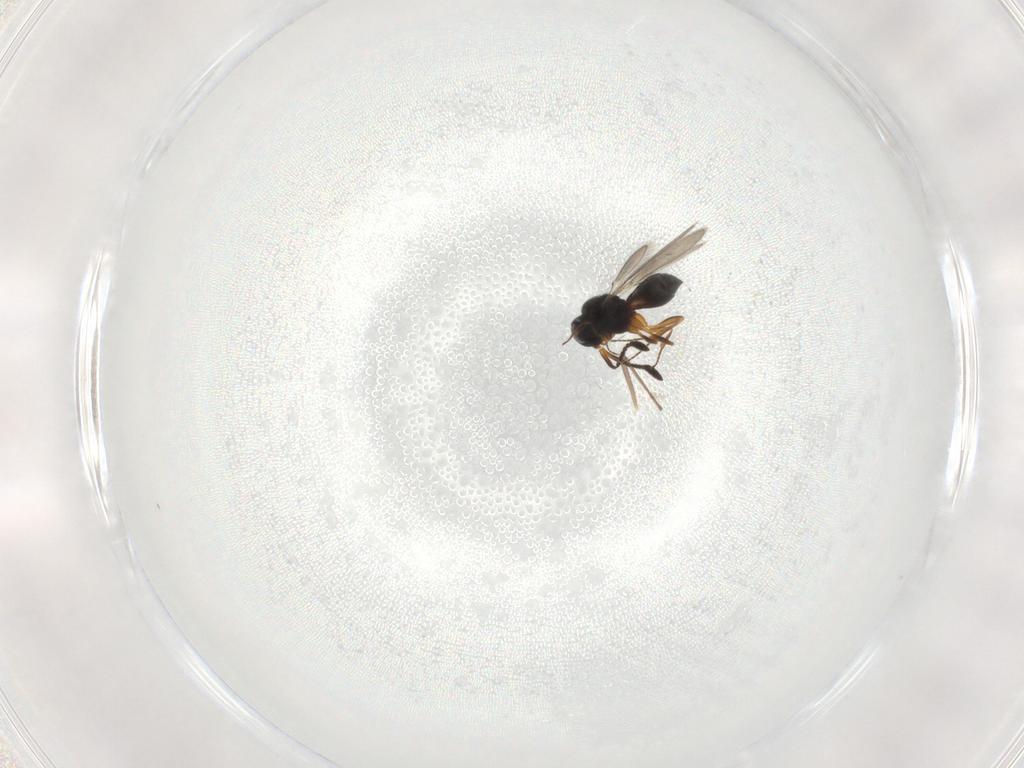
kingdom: Animalia
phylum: Arthropoda
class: Insecta
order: Hymenoptera
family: Scelionidae
